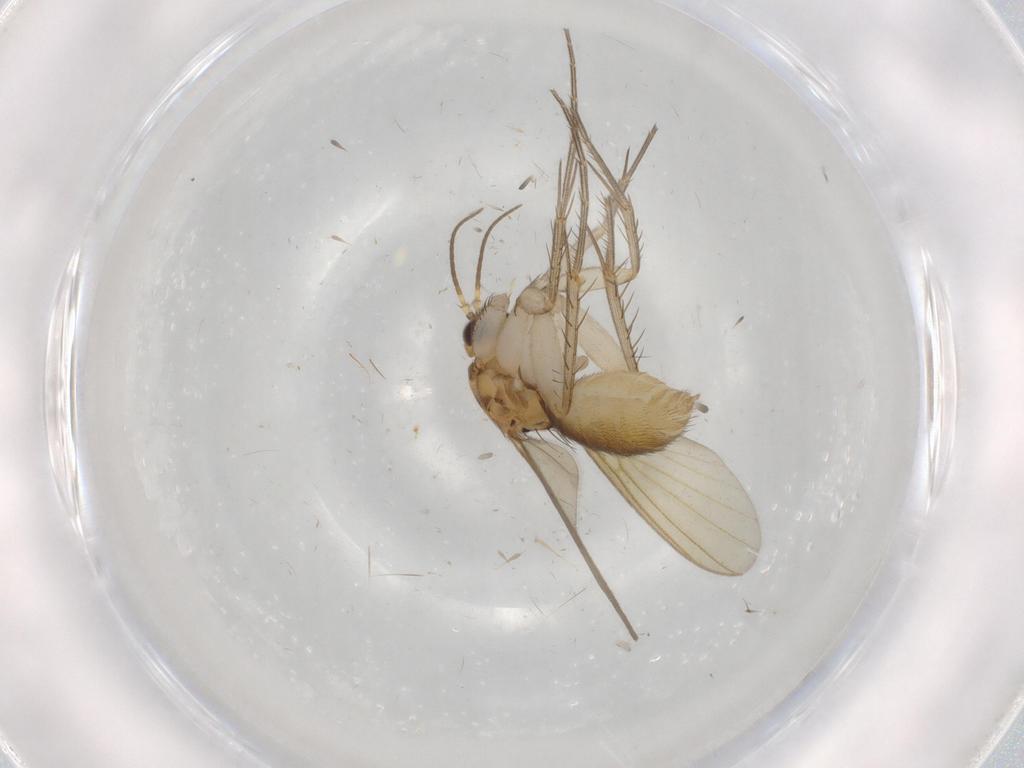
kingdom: Animalia
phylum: Arthropoda
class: Insecta
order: Diptera
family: Mycetophilidae
